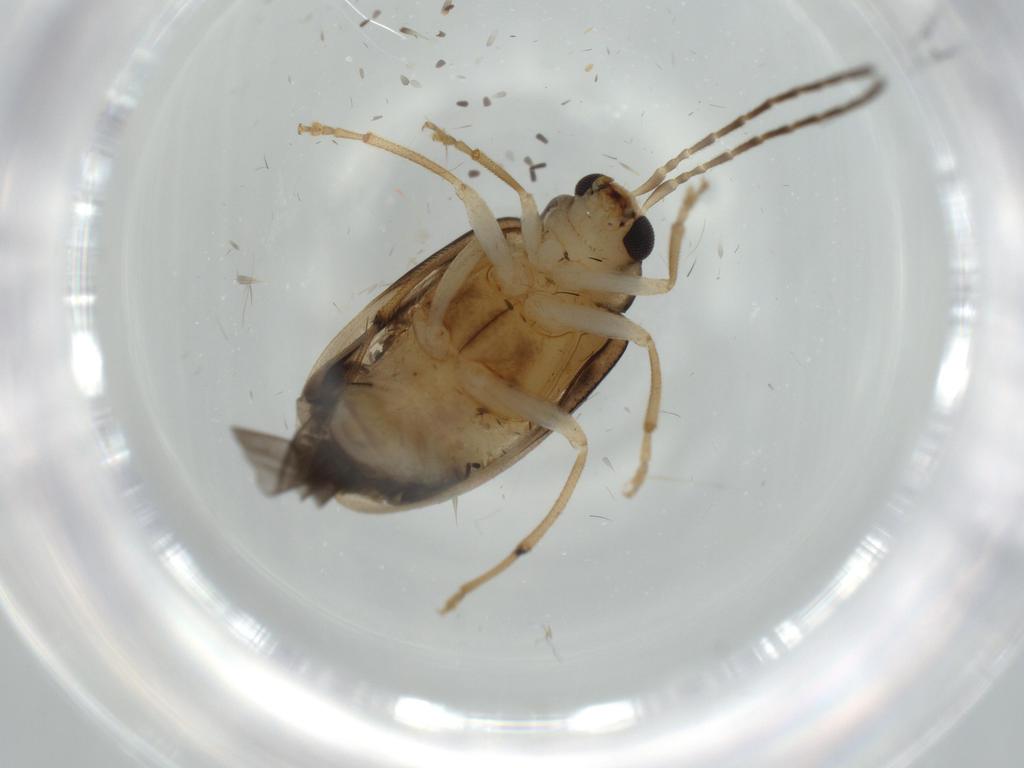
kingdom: Animalia
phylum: Arthropoda
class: Insecta
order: Coleoptera
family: Chrysomelidae
